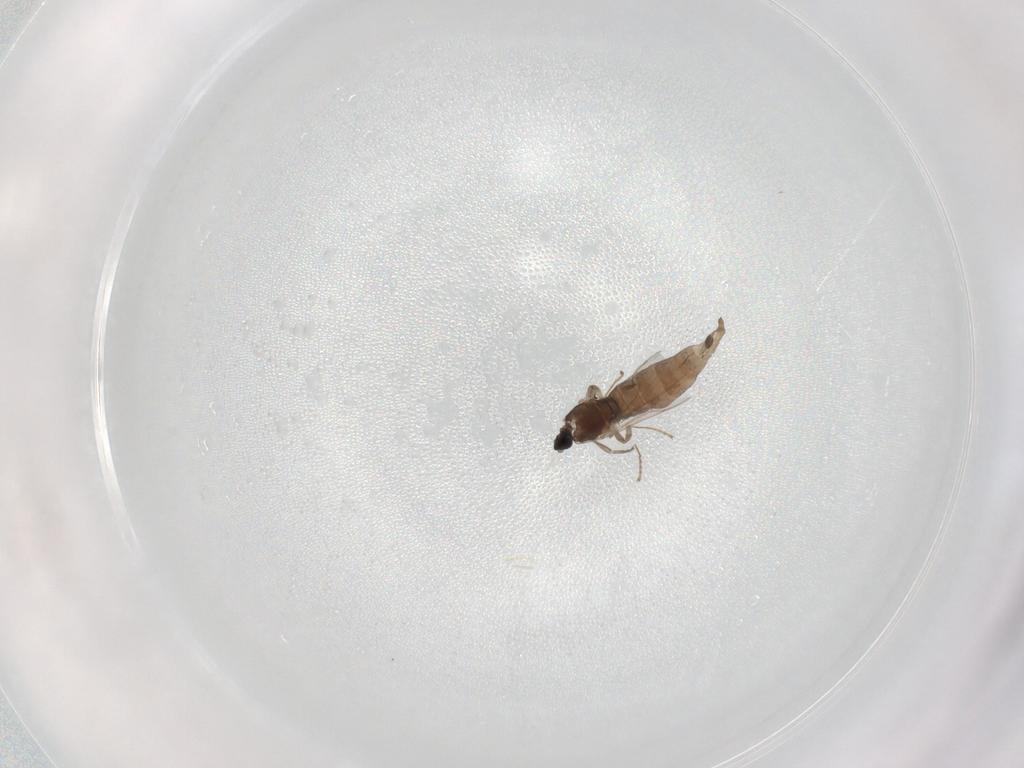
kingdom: Animalia
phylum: Arthropoda
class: Insecta
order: Diptera
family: Cecidomyiidae
